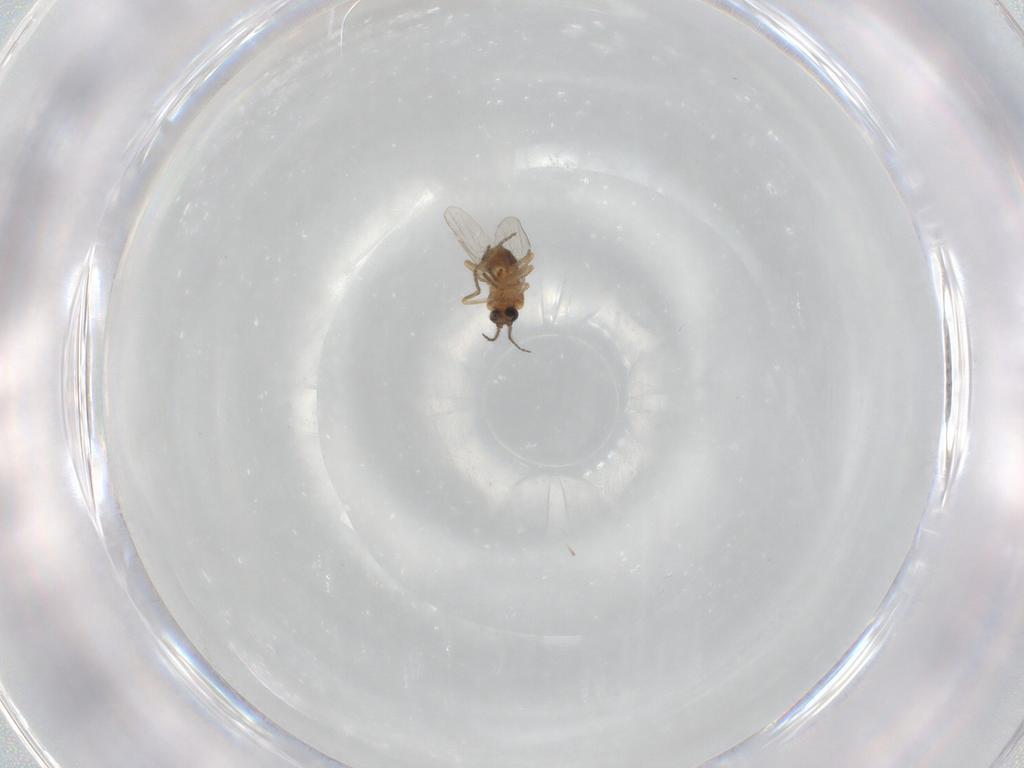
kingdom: Animalia
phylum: Arthropoda
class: Insecta
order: Diptera
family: Ceratopogonidae
